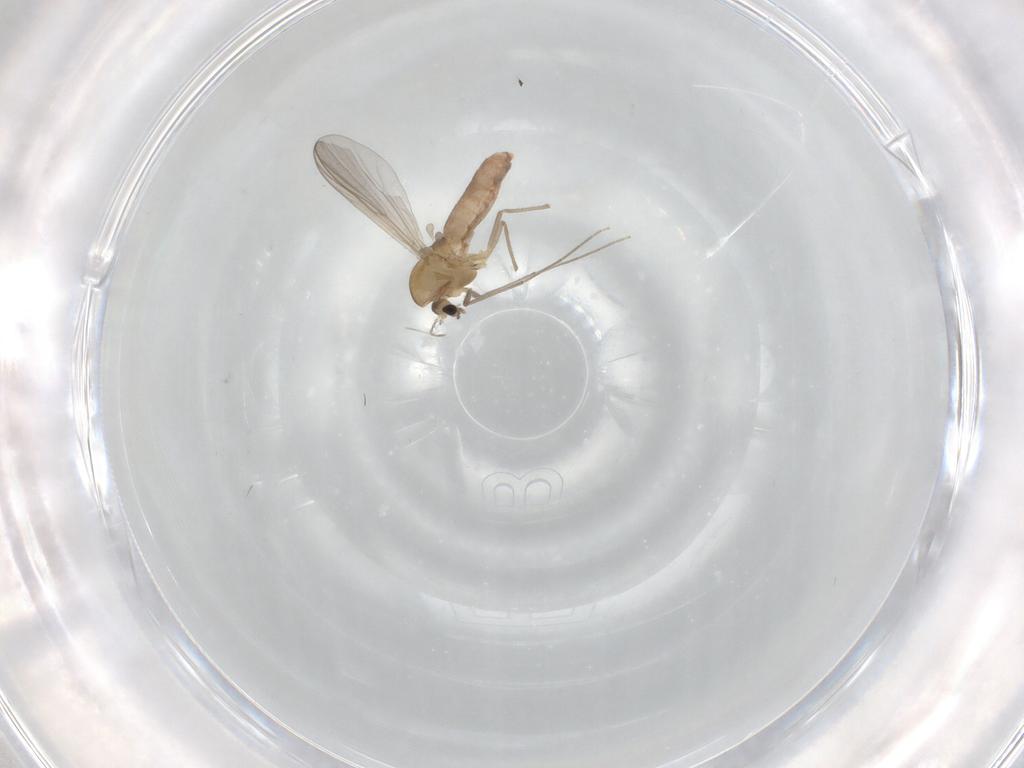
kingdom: Animalia
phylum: Arthropoda
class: Insecta
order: Diptera
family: Chironomidae
